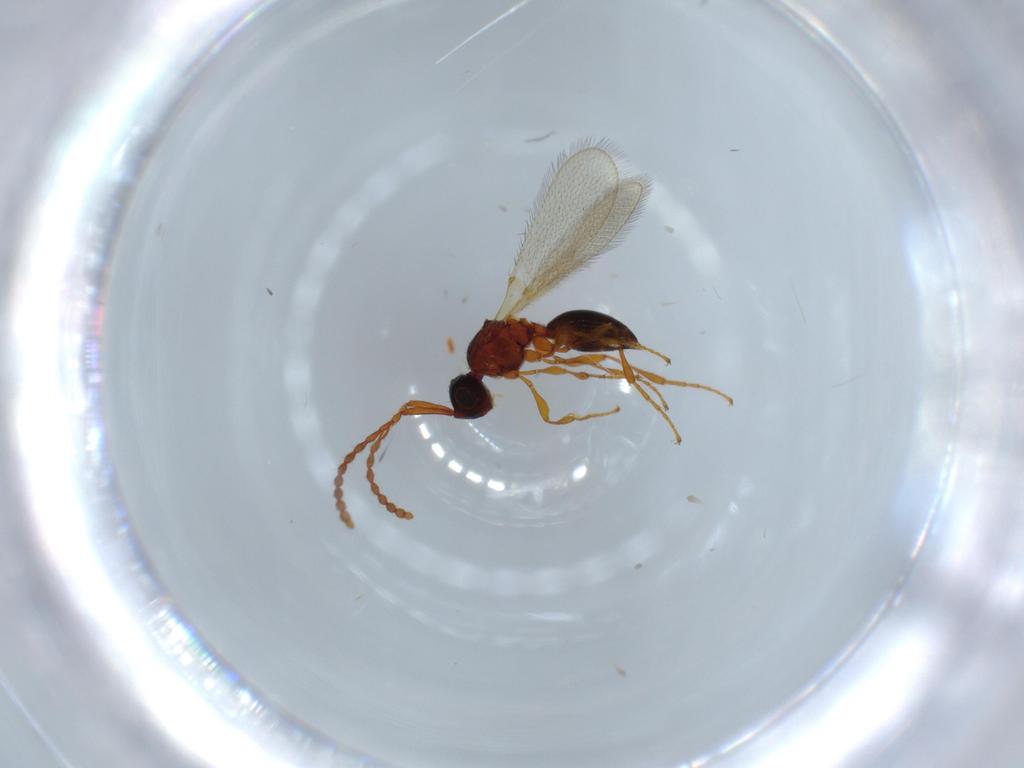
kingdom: Animalia
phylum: Arthropoda
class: Insecta
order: Hymenoptera
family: Diapriidae
